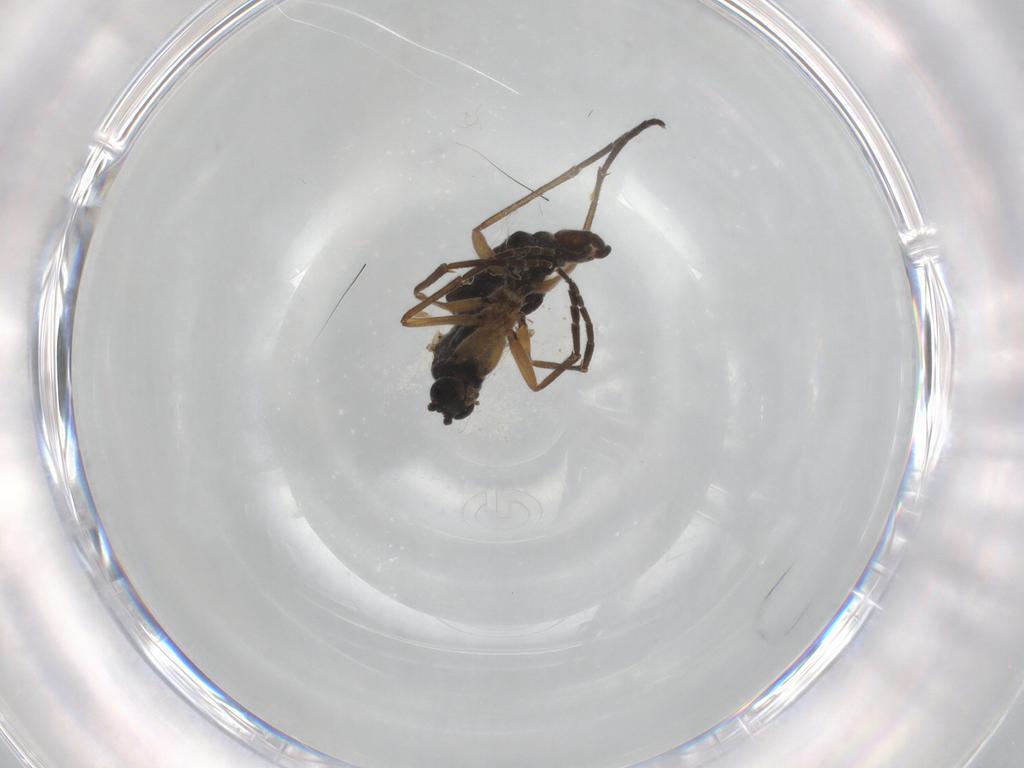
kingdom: Animalia
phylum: Arthropoda
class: Insecta
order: Diptera
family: Sciaridae
